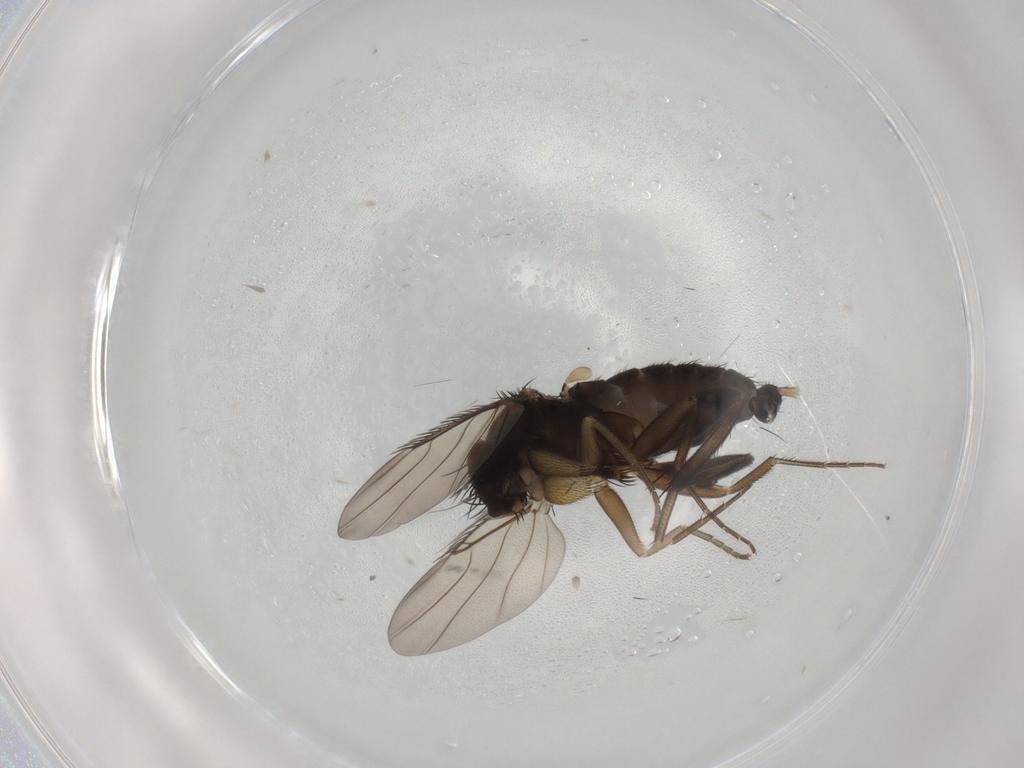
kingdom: Animalia
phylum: Arthropoda
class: Insecta
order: Diptera
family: Phoridae
